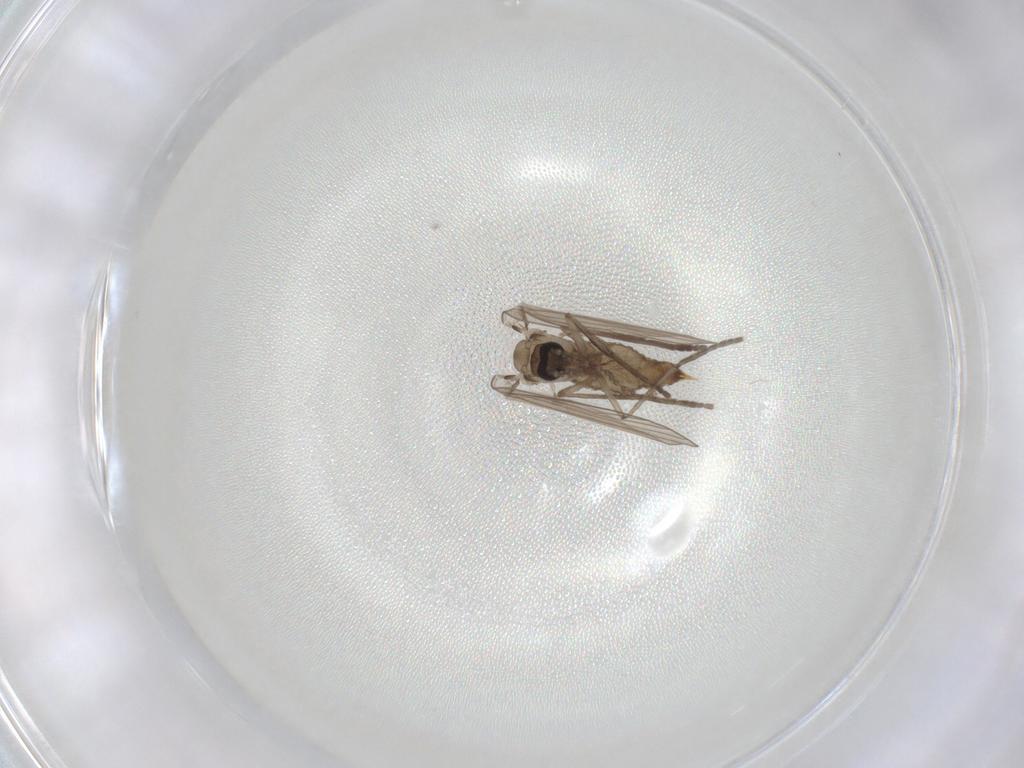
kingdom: Animalia
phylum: Arthropoda
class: Insecta
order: Diptera
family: Psychodidae
